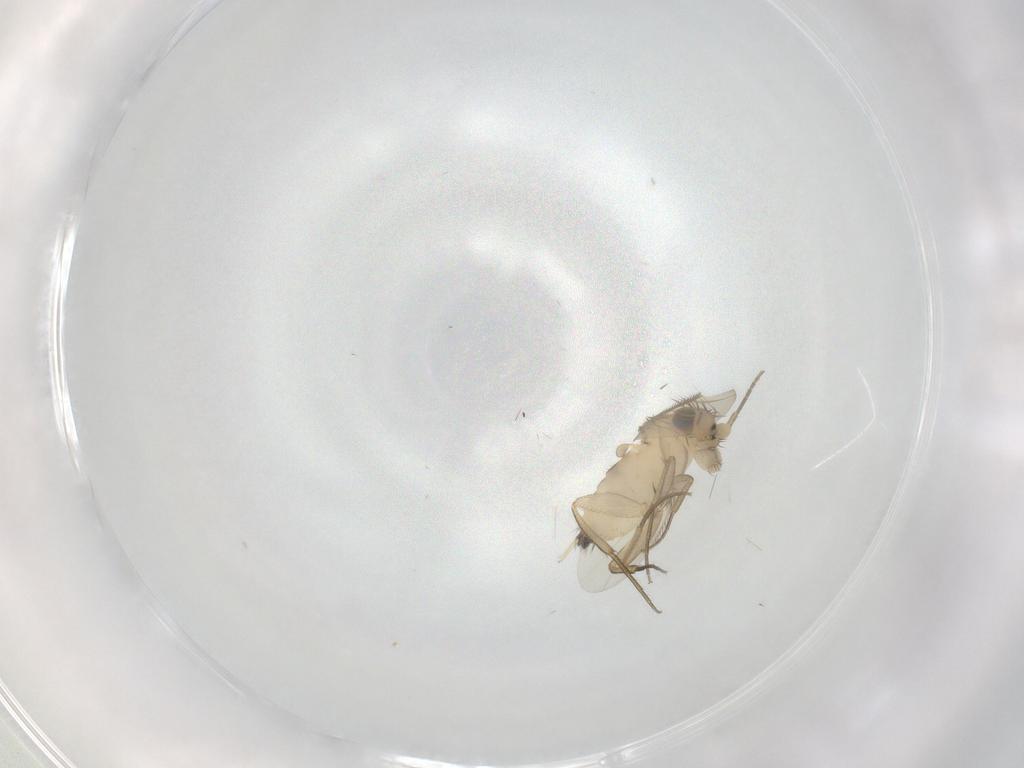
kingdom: Animalia
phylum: Arthropoda
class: Insecta
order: Diptera
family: Phoridae
